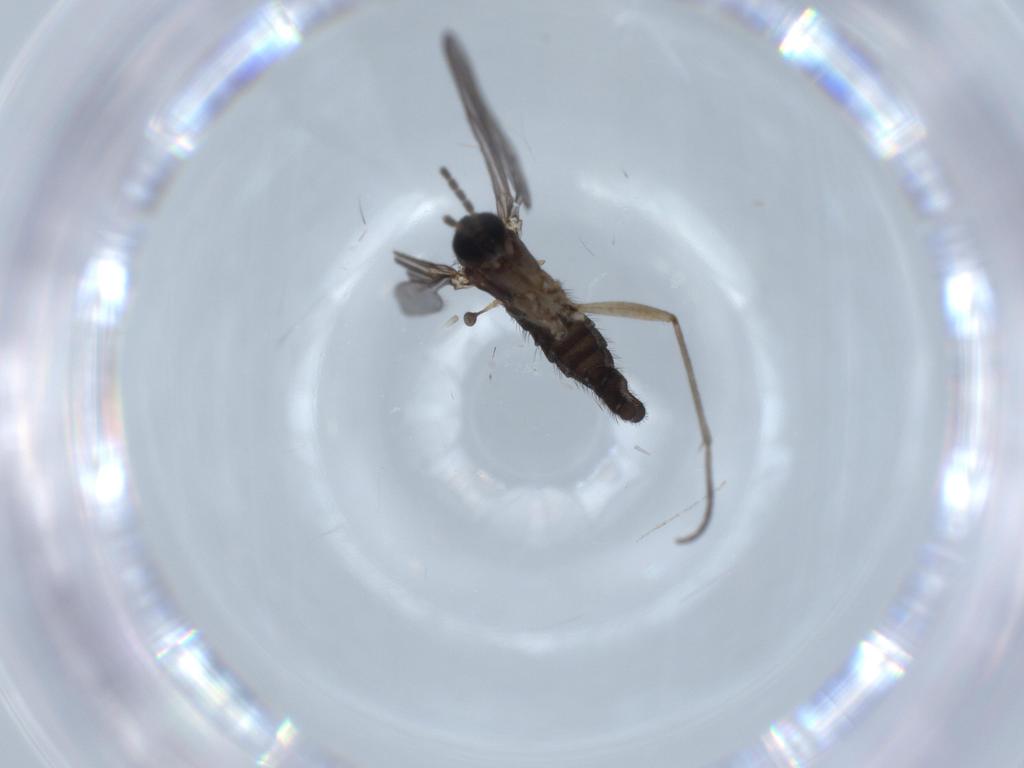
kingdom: Animalia
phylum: Arthropoda
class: Insecta
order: Diptera
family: Sciaridae
